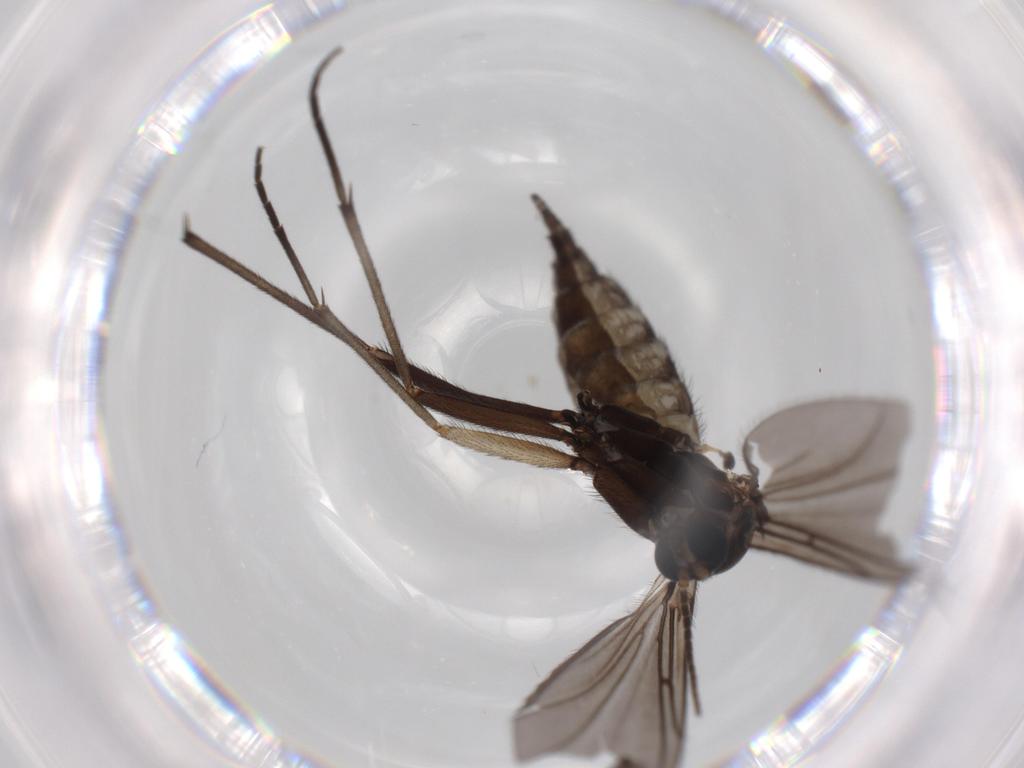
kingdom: Animalia
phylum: Arthropoda
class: Insecta
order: Diptera
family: Sciaridae
